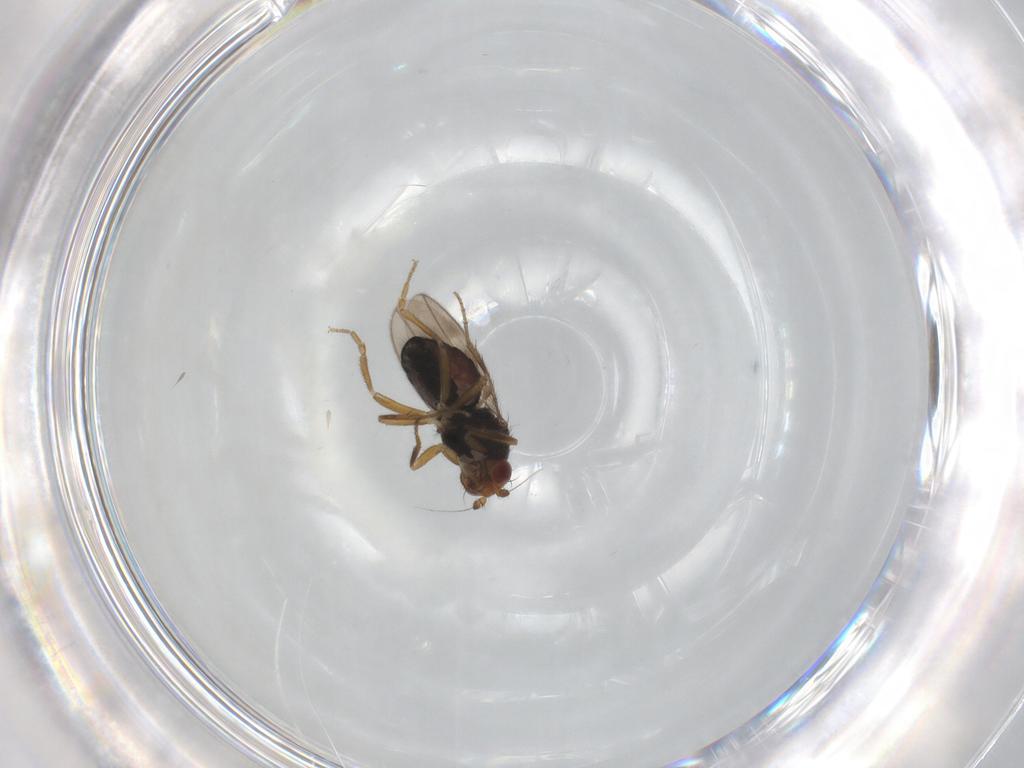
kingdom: Animalia
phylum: Arthropoda
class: Insecta
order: Diptera
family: Sphaeroceridae
